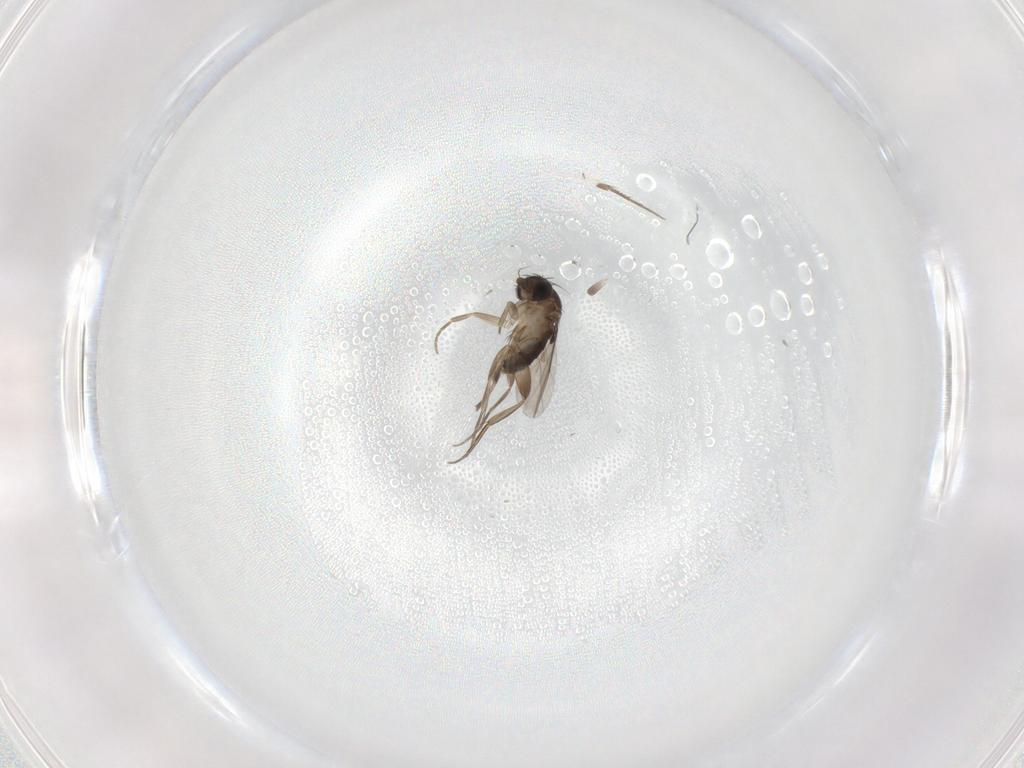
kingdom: Animalia
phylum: Arthropoda
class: Insecta
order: Diptera
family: Phoridae
